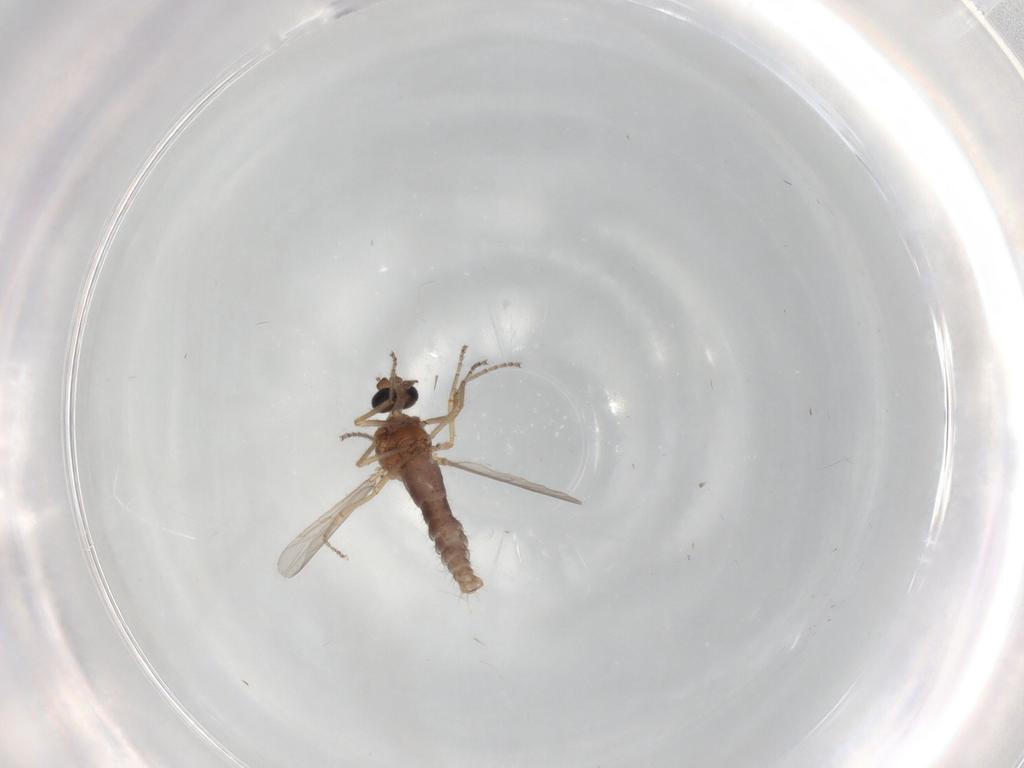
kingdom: Animalia
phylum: Arthropoda
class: Insecta
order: Diptera
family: Ceratopogonidae
